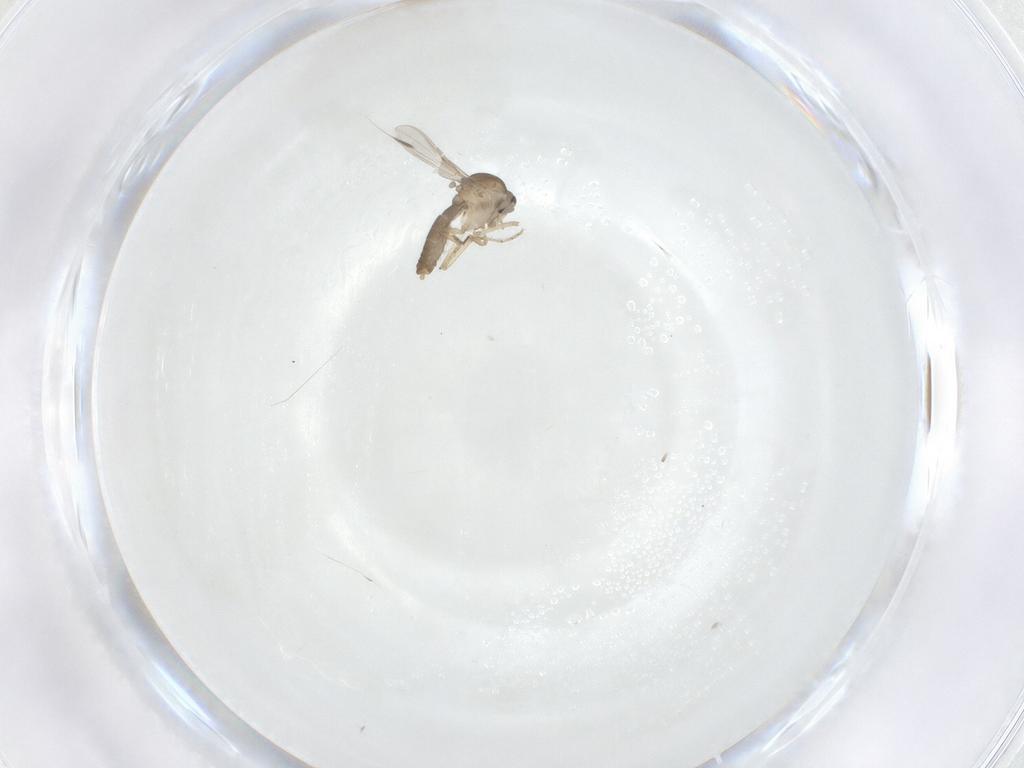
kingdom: Animalia
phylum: Arthropoda
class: Insecta
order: Diptera
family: Ceratopogonidae
